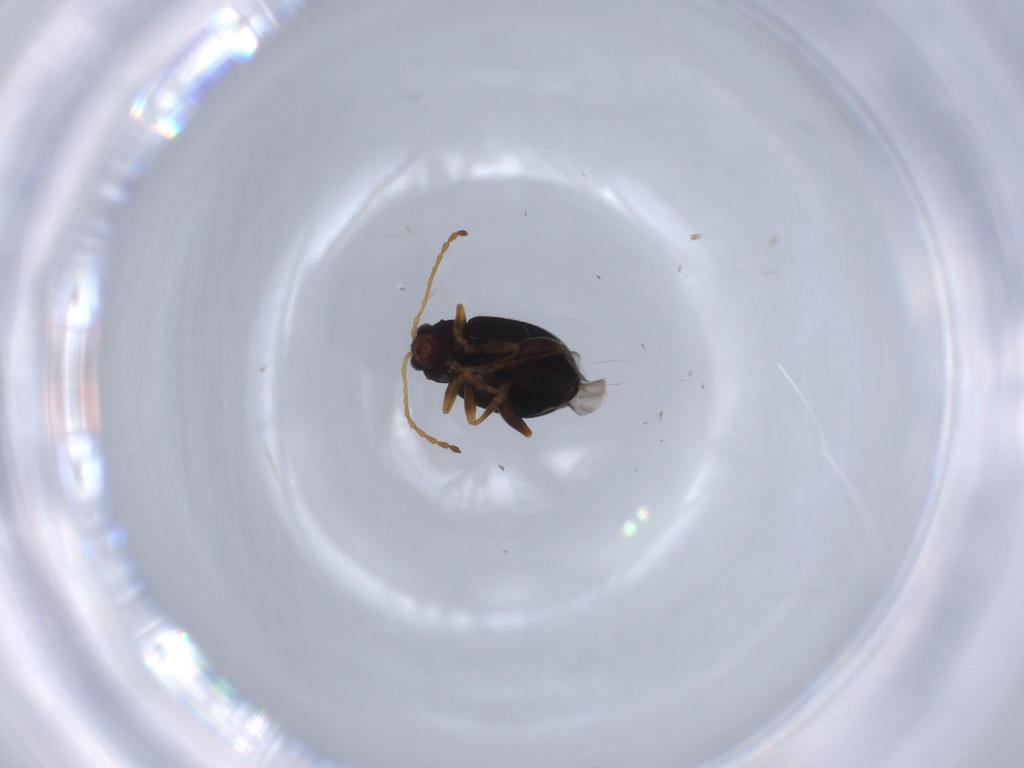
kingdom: Animalia
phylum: Arthropoda
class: Insecta
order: Coleoptera
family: Chrysomelidae
